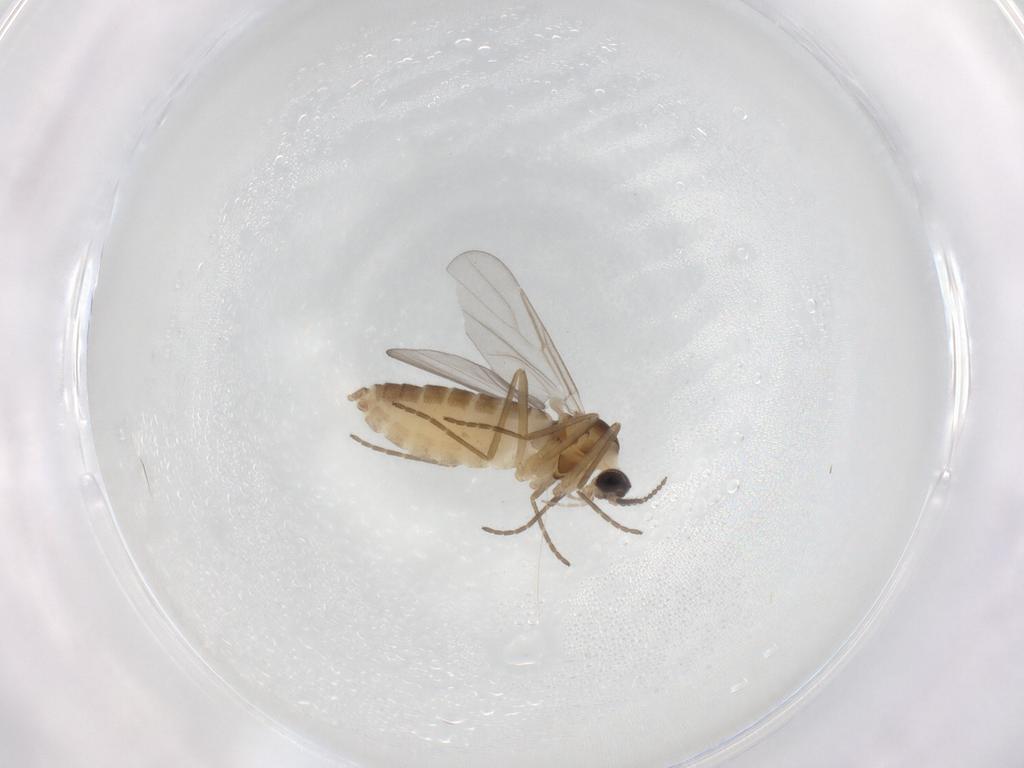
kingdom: Animalia
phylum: Arthropoda
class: Insecta
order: Diptera
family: Cecidomyiidae
